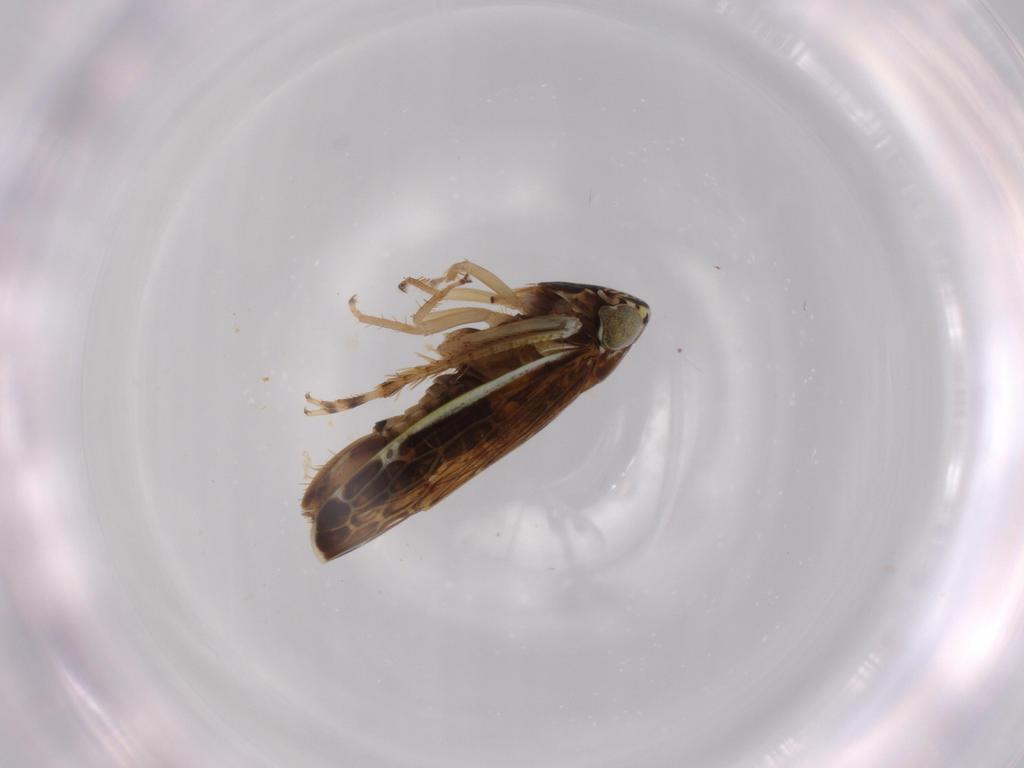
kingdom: Animalia
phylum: Arthropoda
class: Insecta
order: Hemiptera
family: Cicadellidae
